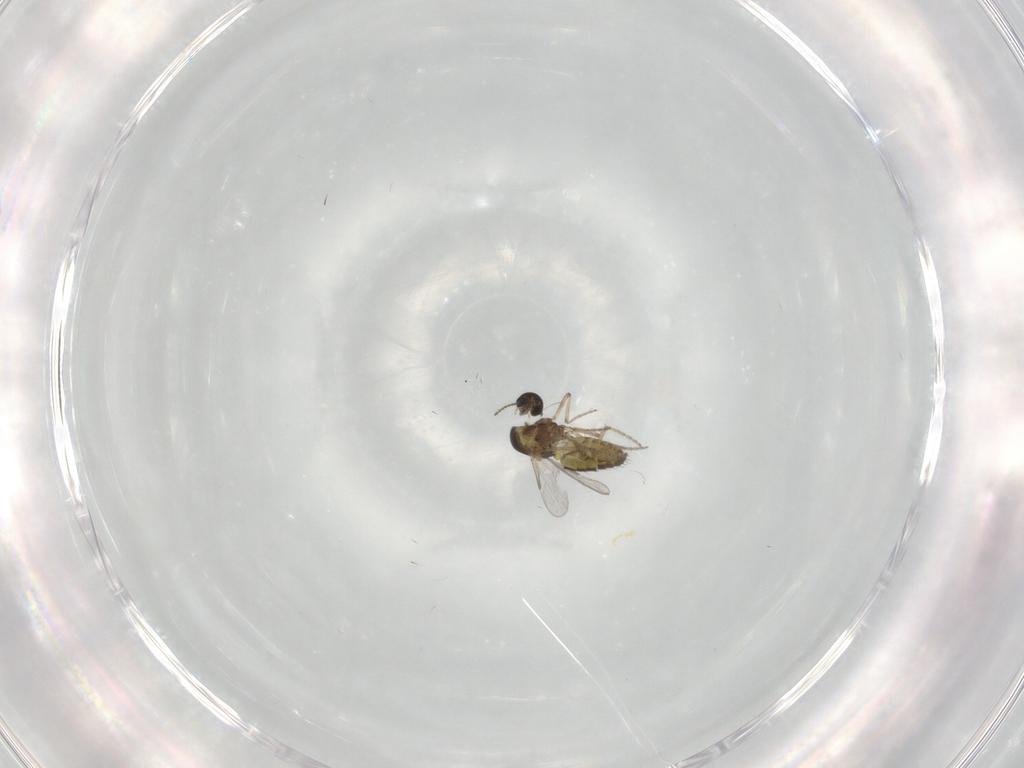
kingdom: Animalia
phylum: Arthropoda
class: Insecta
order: Diptera
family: Ceratopogonidae
